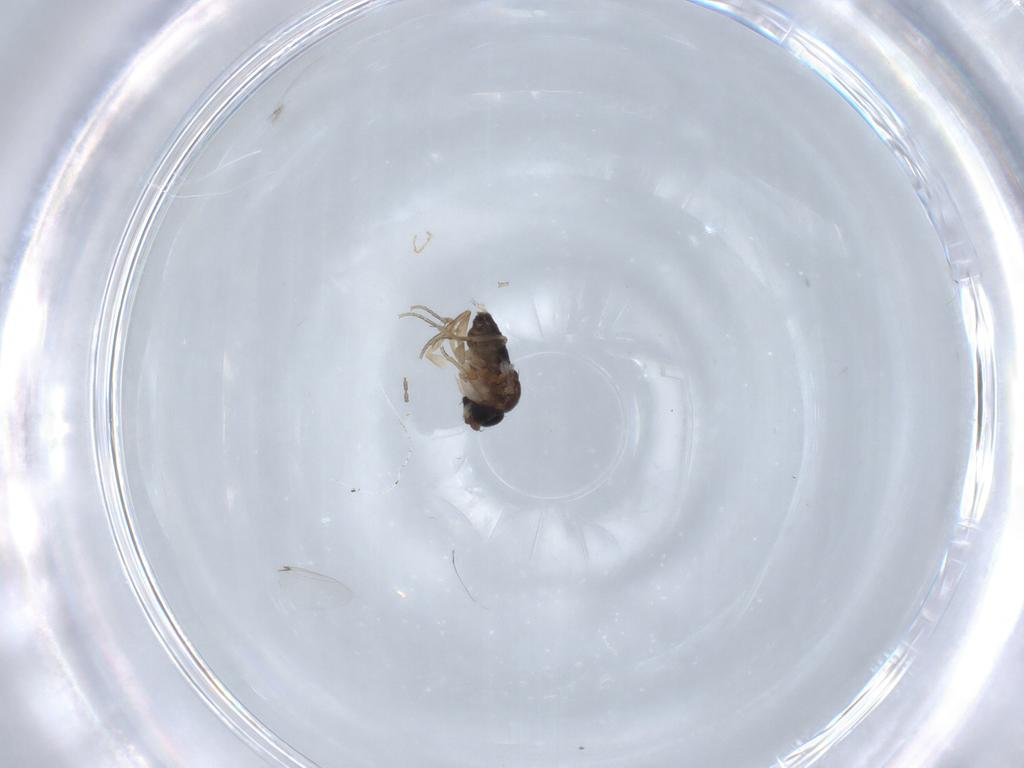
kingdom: Animalia
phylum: Arthropoda
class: Insecta
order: Diptera
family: Phoridae
